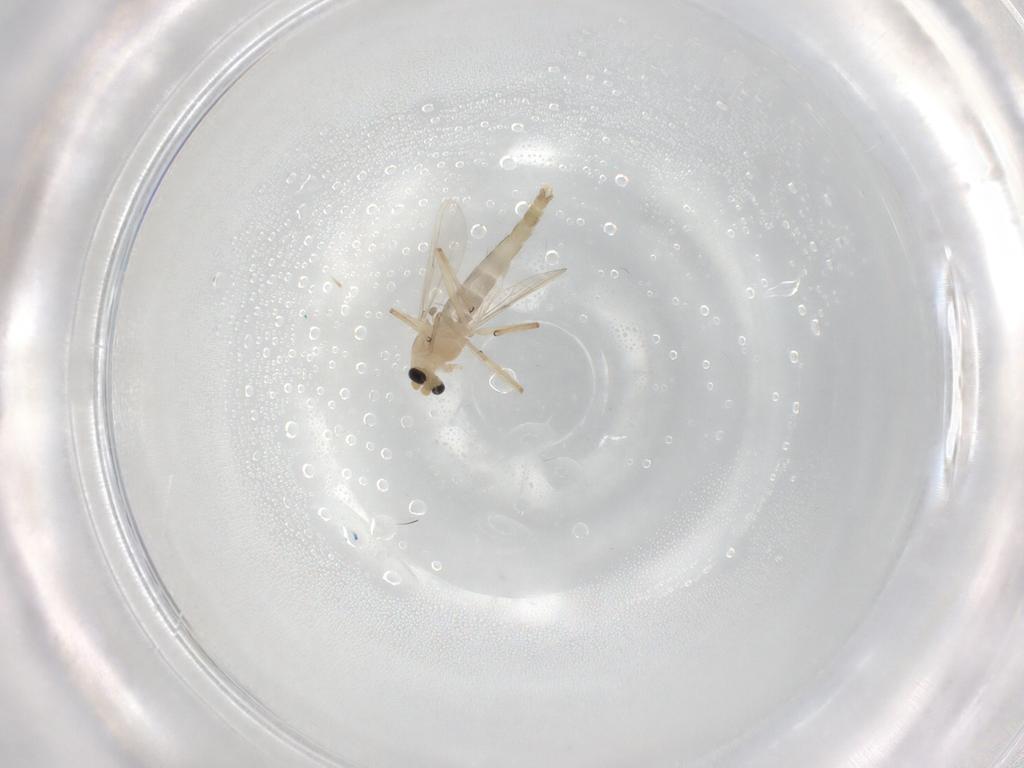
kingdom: Animalia
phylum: Arthropoda
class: Insecta
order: Diptera
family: Chironomidae
